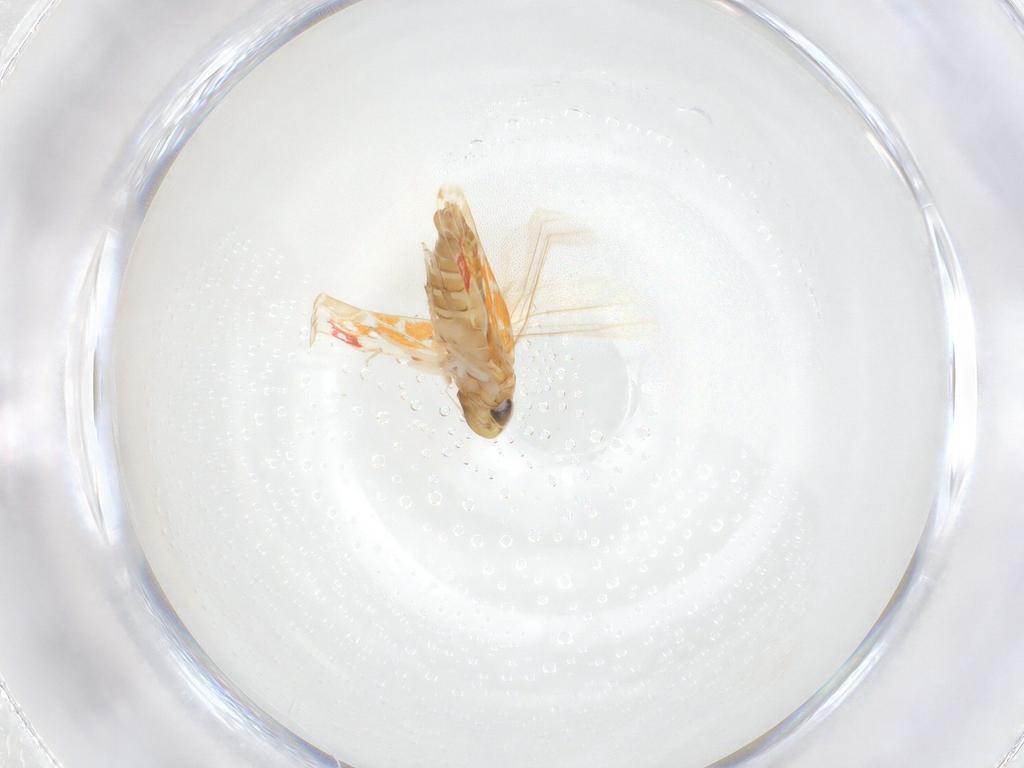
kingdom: Animalia
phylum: Arthropoda
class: Insecta
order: Hemiptera
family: Cicadellidae
